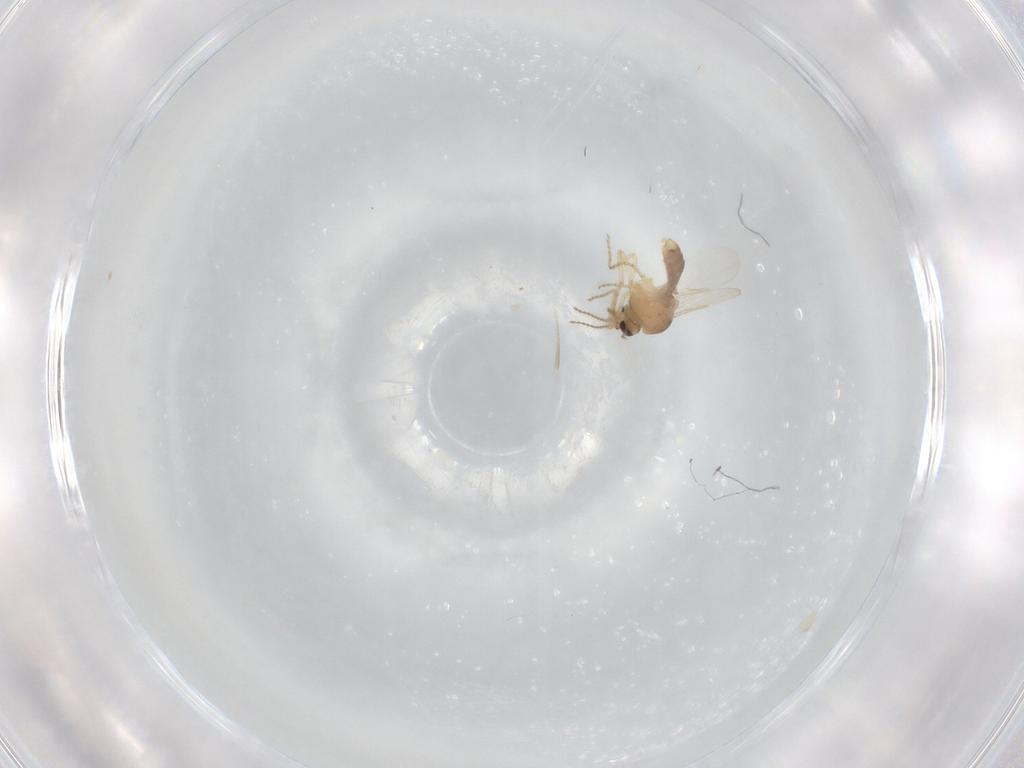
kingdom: Animalia
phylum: Arthropoda
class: Insecta
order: Diptera
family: Ceratopogonidae
